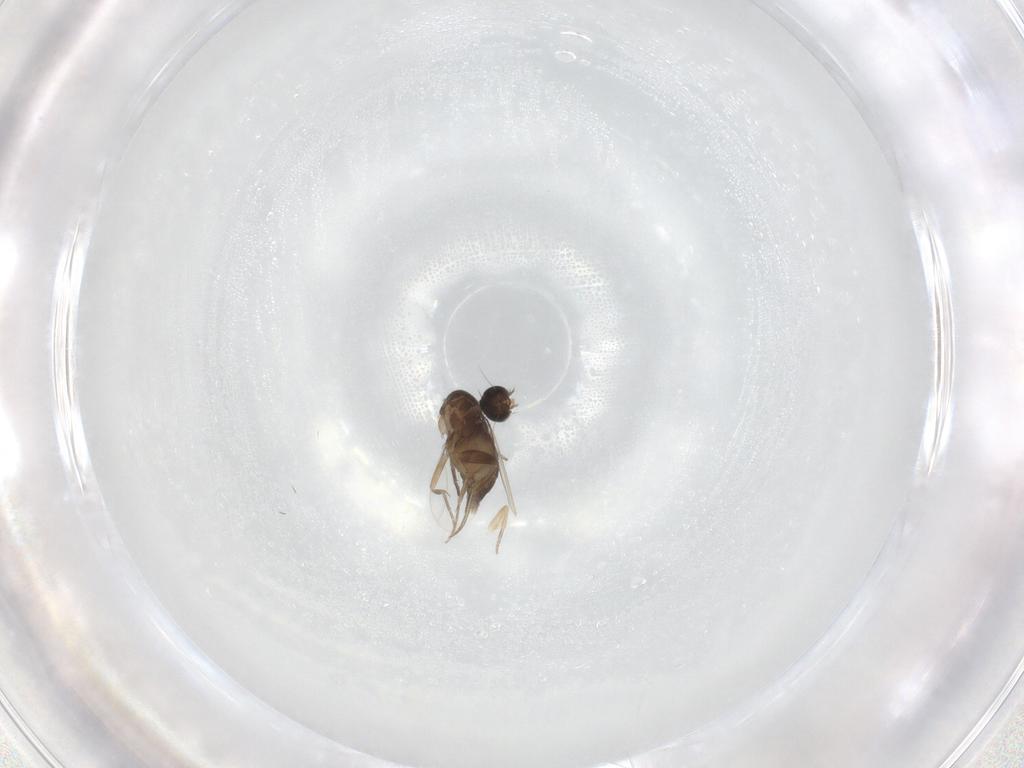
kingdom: Animalia
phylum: Arthropoda
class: Insecta
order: Diptera
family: Phoridae
